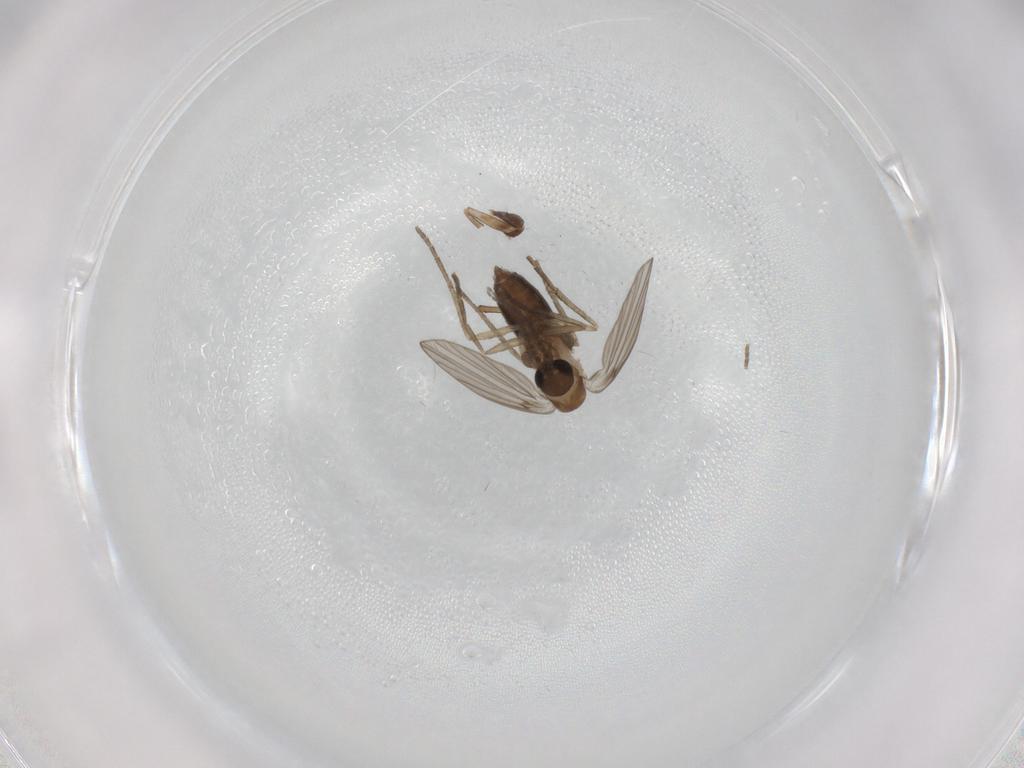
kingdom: Animalia
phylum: Arthropoda
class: Insecta
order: Diptera
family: Psychodidae
